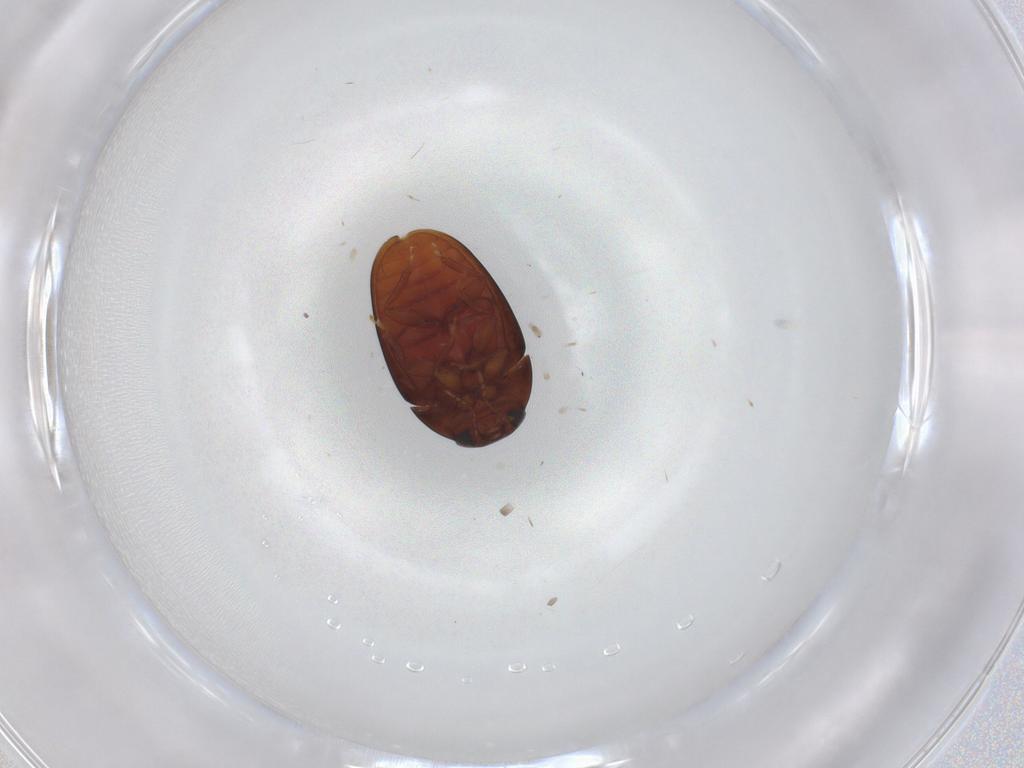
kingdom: Animalia
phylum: Arthropoda
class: Insecta
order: Coleoptera
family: Phalacridae
